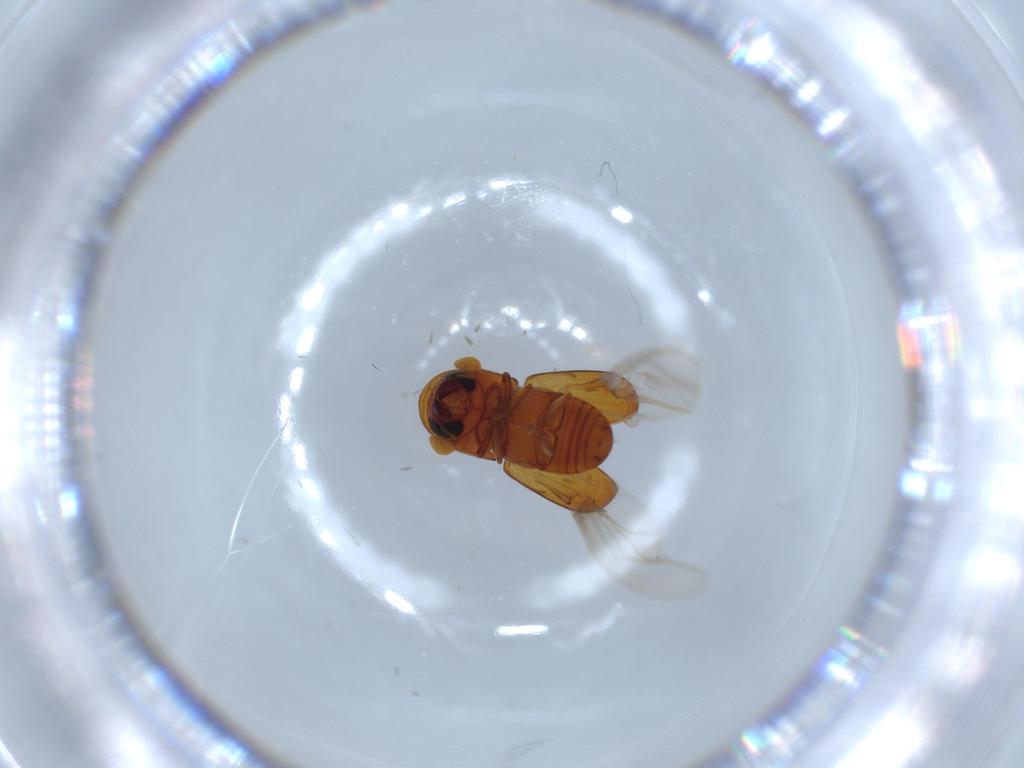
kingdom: Animalia
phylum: Arthropoda
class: Insecta
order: Coleoptera
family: Curculionidae
